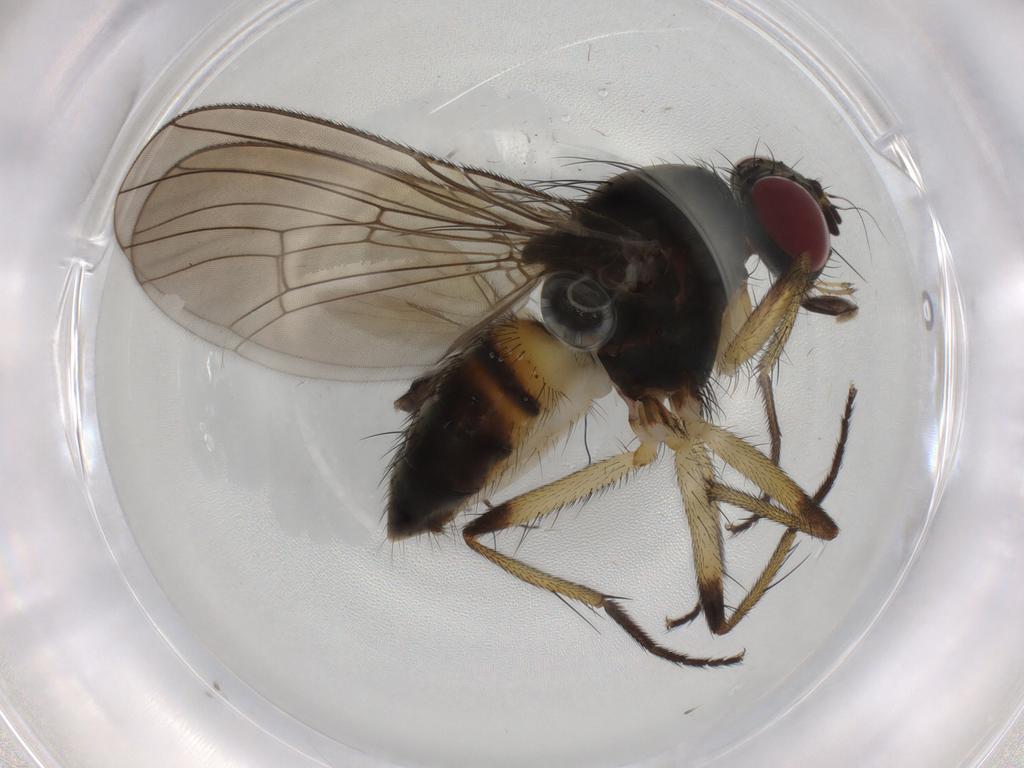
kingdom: Animalia
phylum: Arthropoda
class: Insecta
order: Diptera
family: Muscidae
